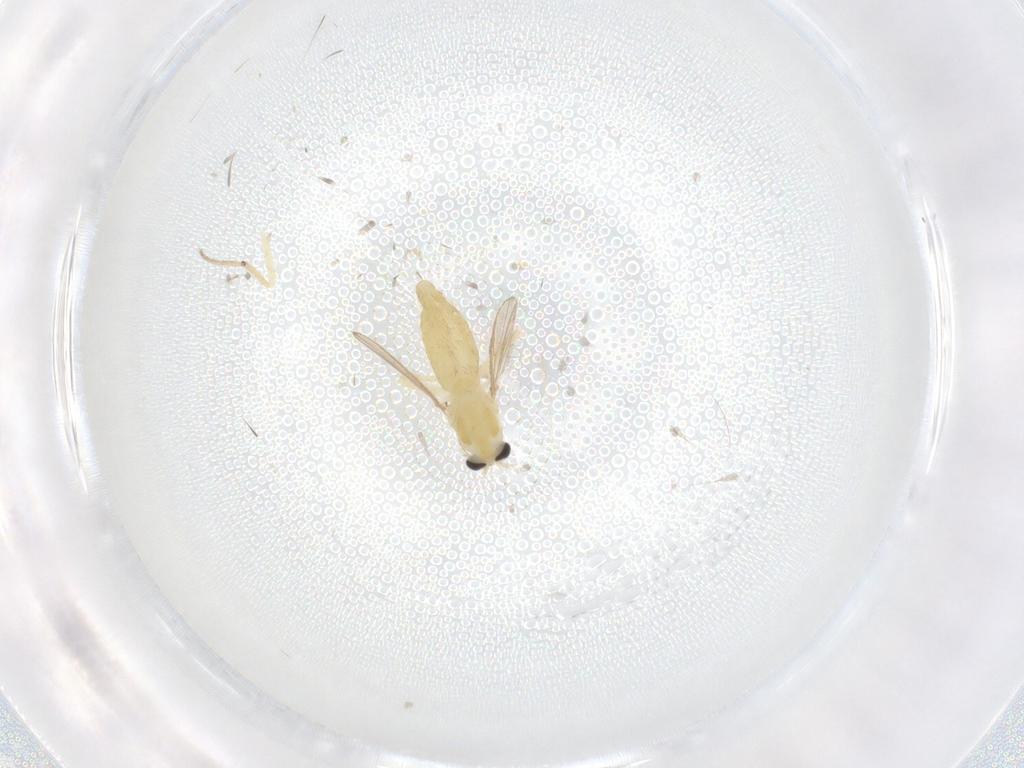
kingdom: Animalia
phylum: Arthropoda
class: Insecta
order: Diptera
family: Chironomidae
